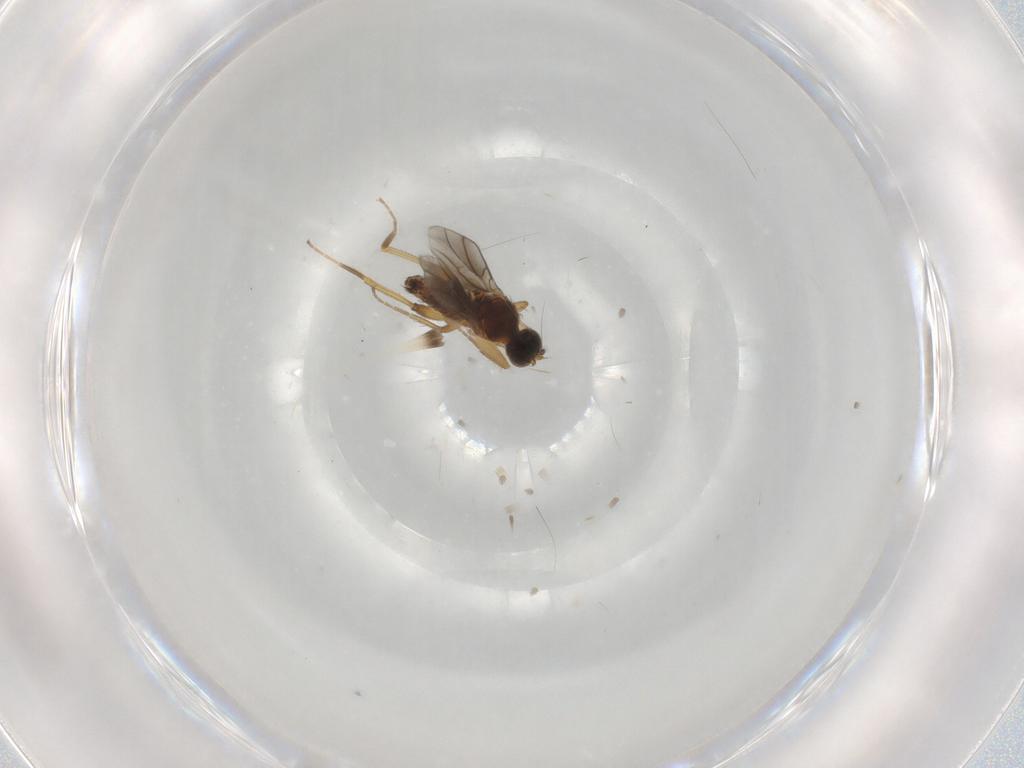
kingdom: Animalia
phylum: Arthropoda
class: Insecta
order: Diptera
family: Hybotidae
